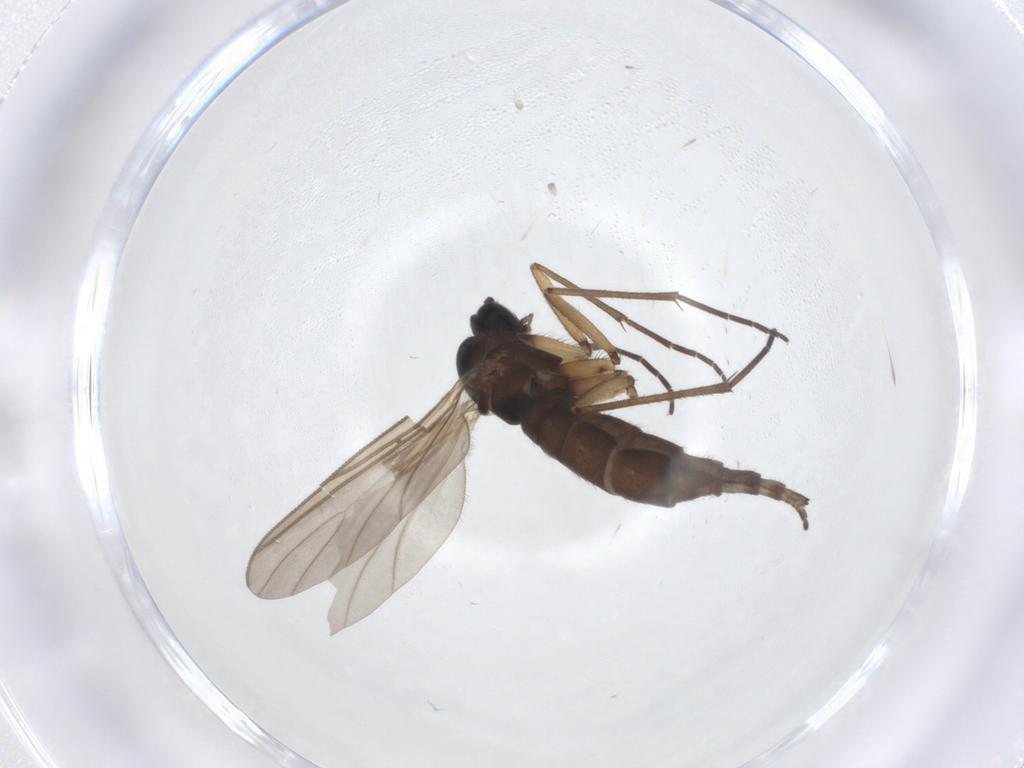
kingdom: Animalia
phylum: Arthropoda
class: Insecta
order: Diptera
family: Sciaridae
